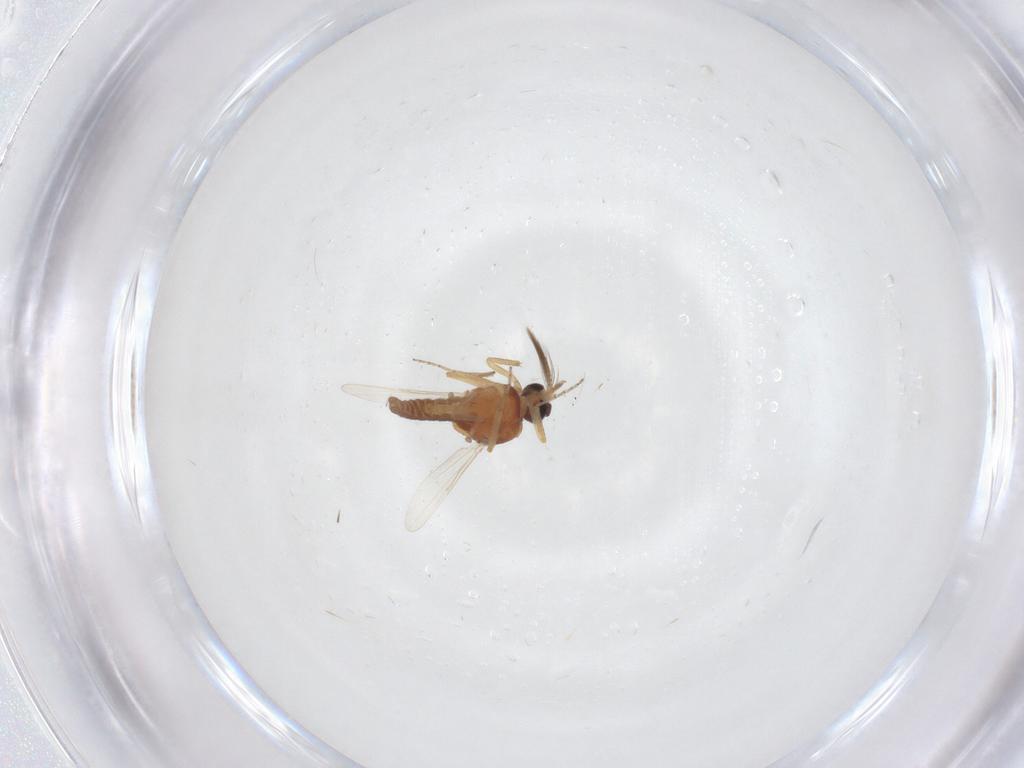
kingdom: Animalia
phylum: Arthropoda
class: Insecta
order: Diptera
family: Ceratopogonidae
